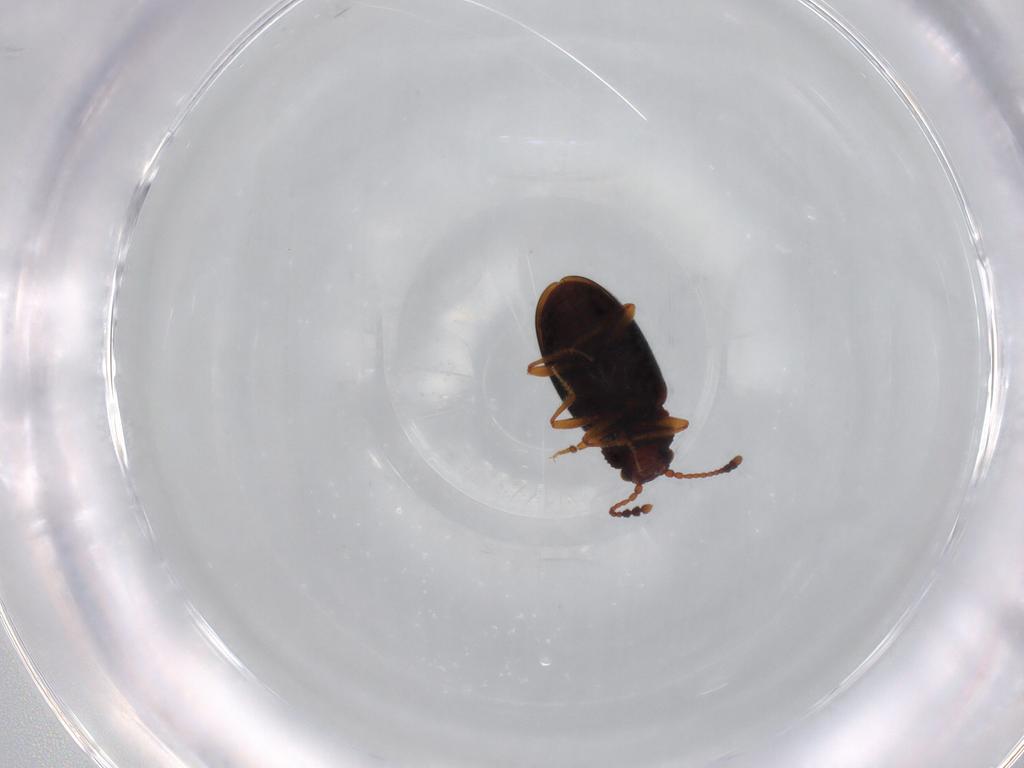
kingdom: Animalia
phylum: Arthropoda
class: Insecta
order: Coleoptera
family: Cryptophagidae
